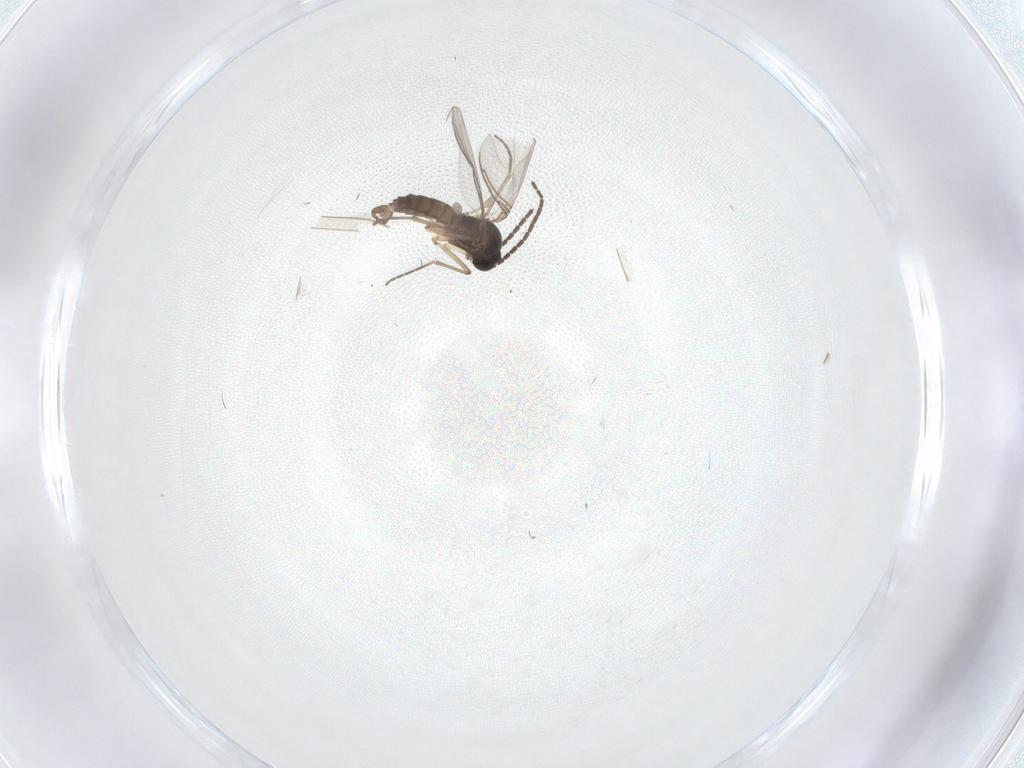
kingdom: Animalia
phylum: Arthropoda
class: Insecta
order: Diptera
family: Sciaridae
